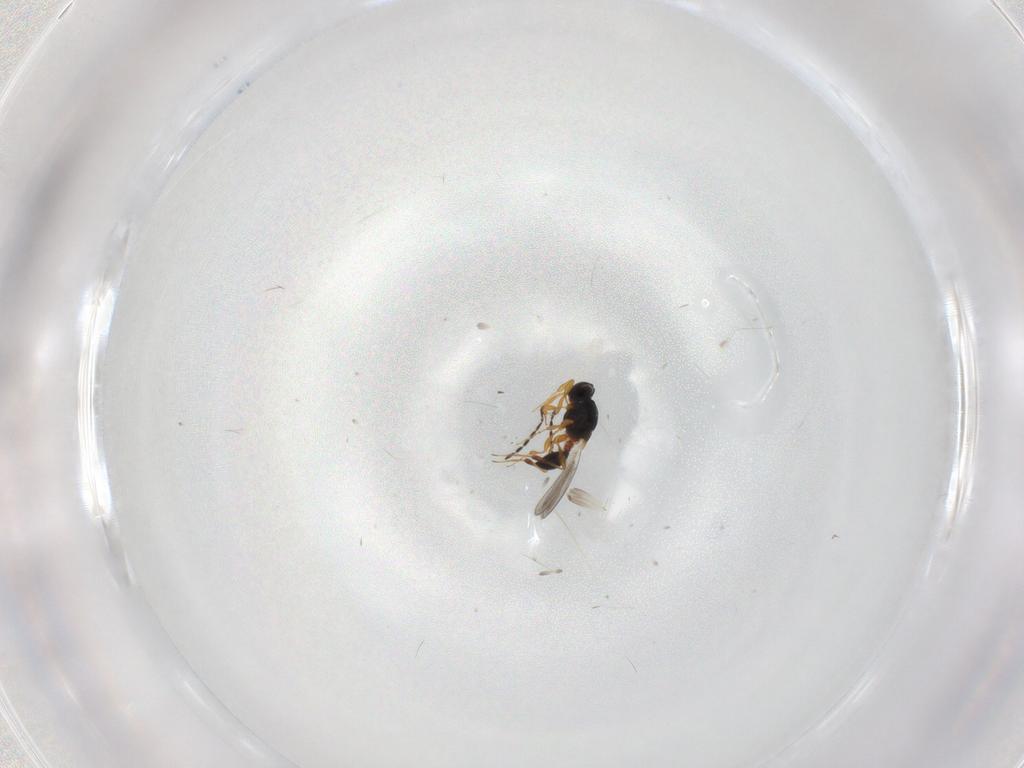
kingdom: Animalia
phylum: Arthropoda
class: Insecta
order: Hymenoptera
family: Platygastridae
